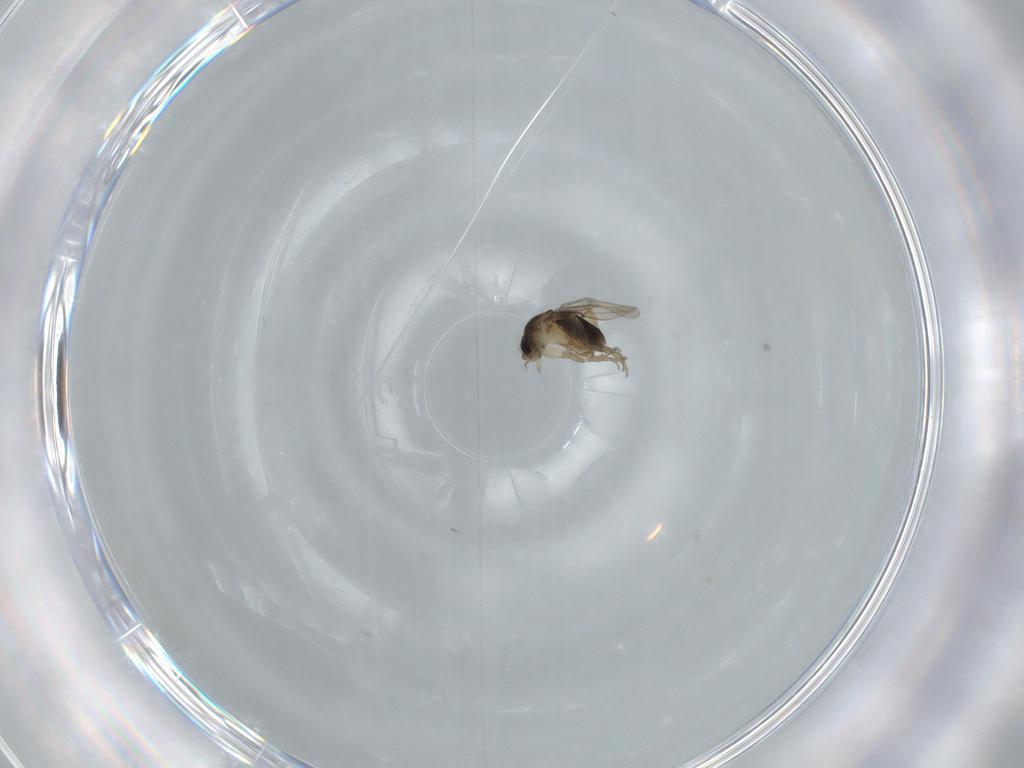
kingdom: Animalia
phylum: Arthropoda
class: Insecta
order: Diptera
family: Phoridae
